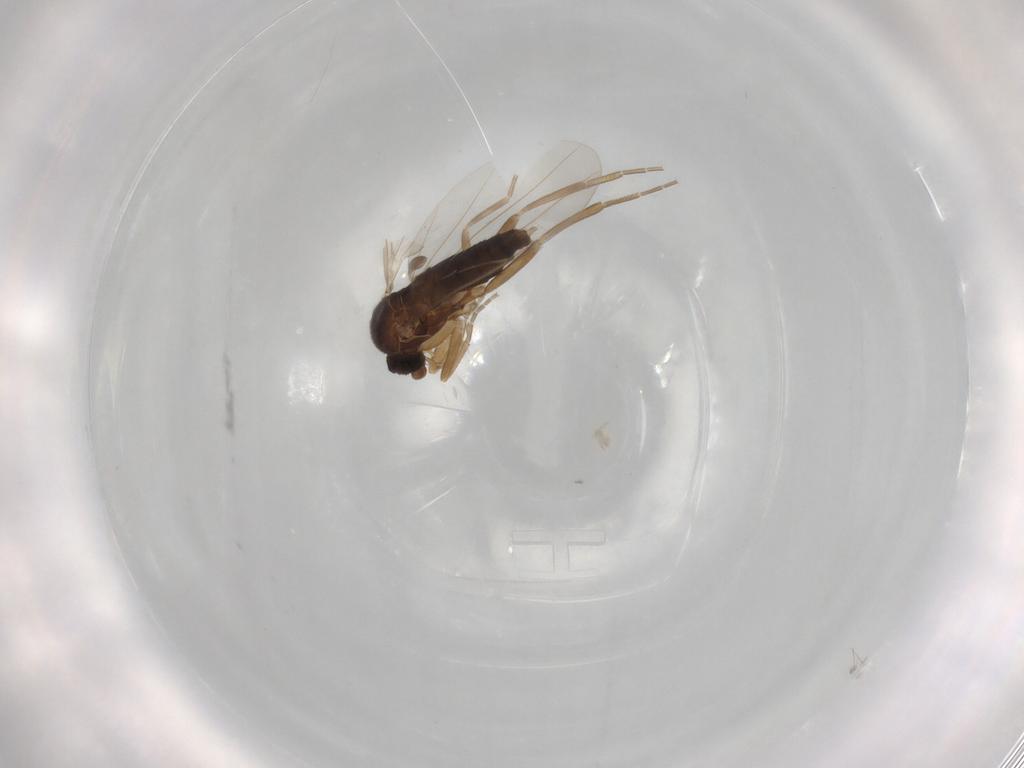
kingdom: Animalia
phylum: Arthropoda
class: Insecta
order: Diptera
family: Phoridae
